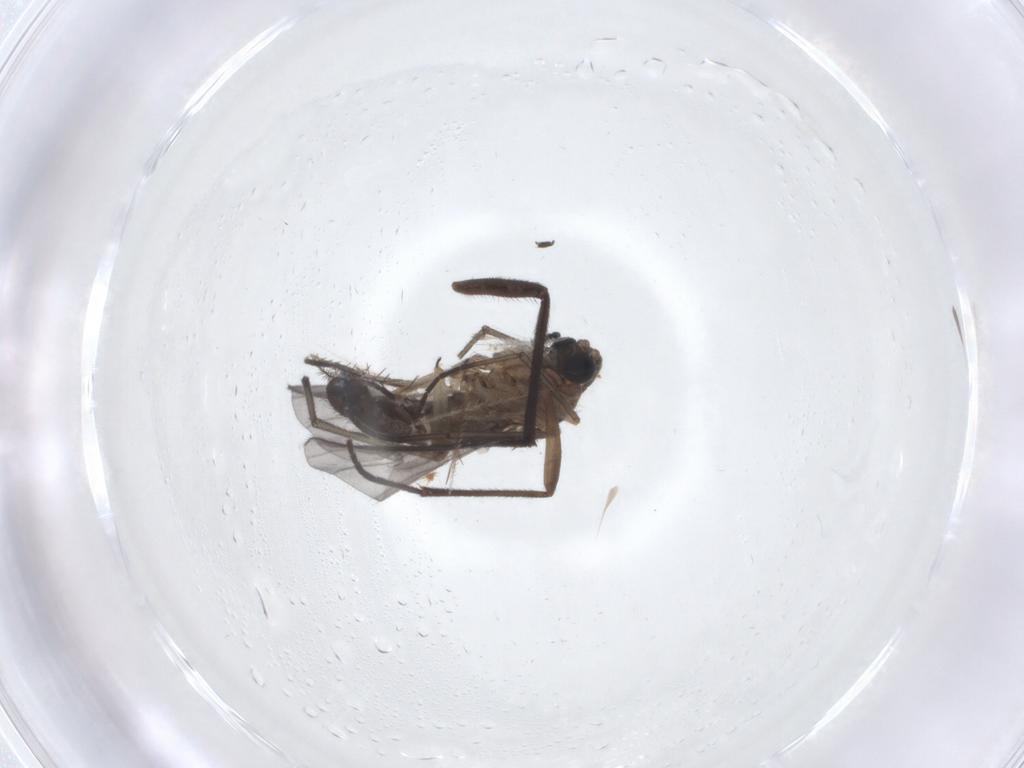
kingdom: Animalia
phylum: Arthropoda
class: Insecta
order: Diptera
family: Sciaridae
